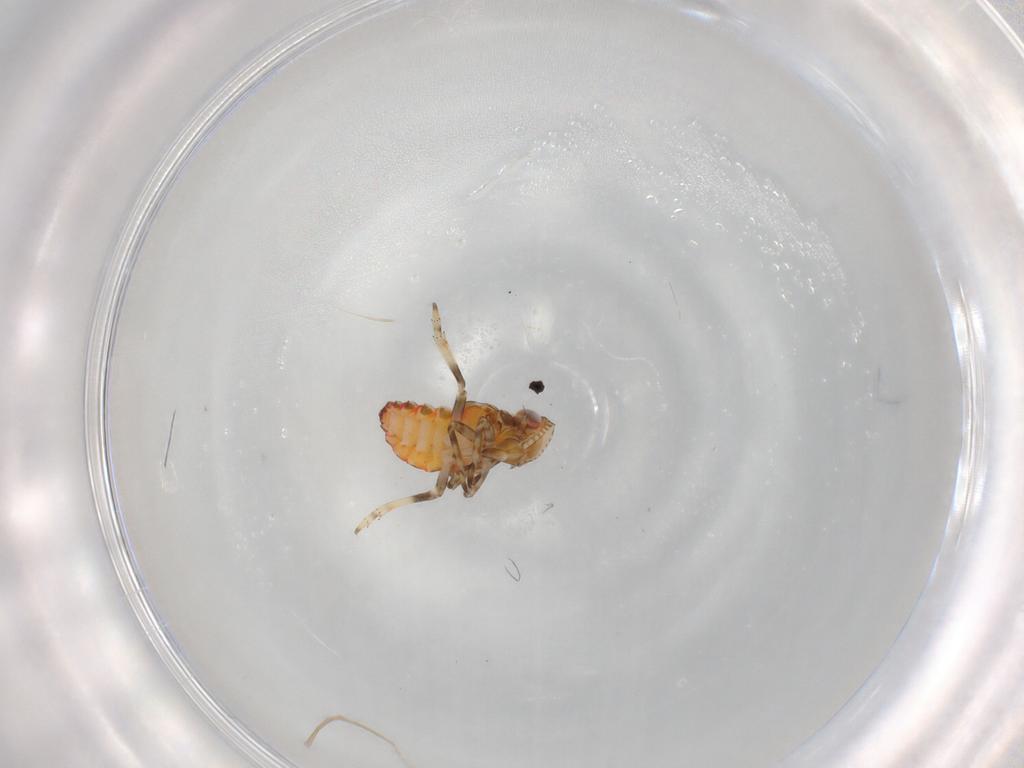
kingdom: Animalia
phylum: Arthropoda
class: Insecta
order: Hemiptera
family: Tropiduchidae
